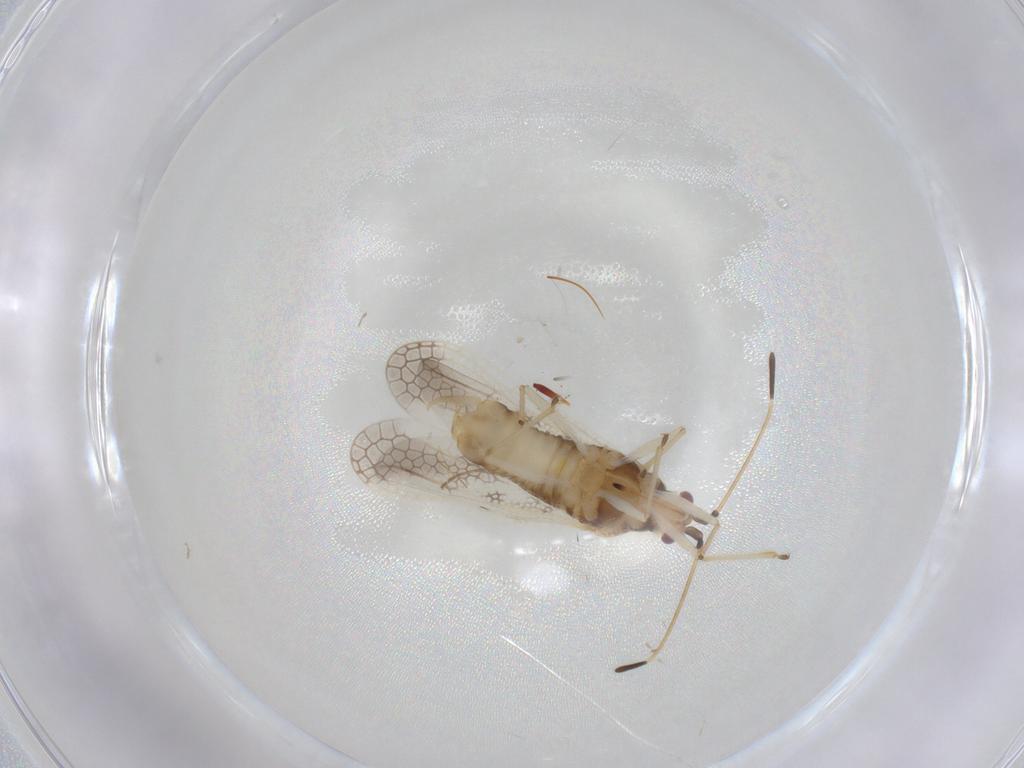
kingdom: Animalia
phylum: Arthropoda
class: Insecta
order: Hemiptera
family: Tingidae
